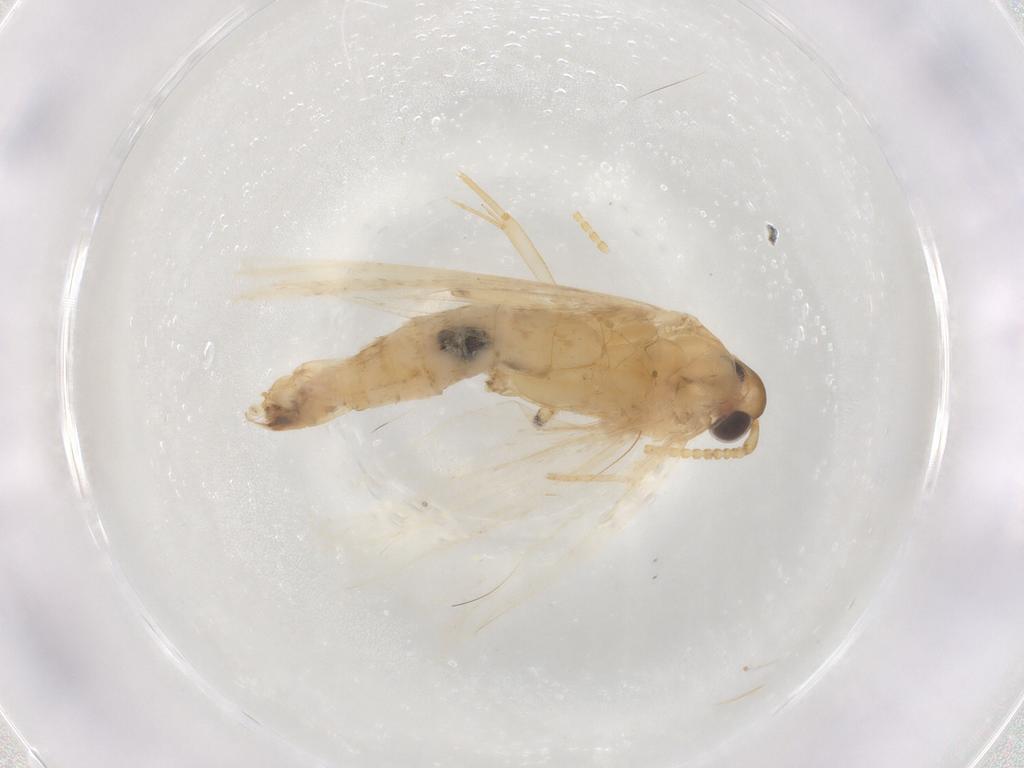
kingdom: Animalia
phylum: Arthropoda
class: Insecta
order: Lepidoptera
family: Lecithoceridae
